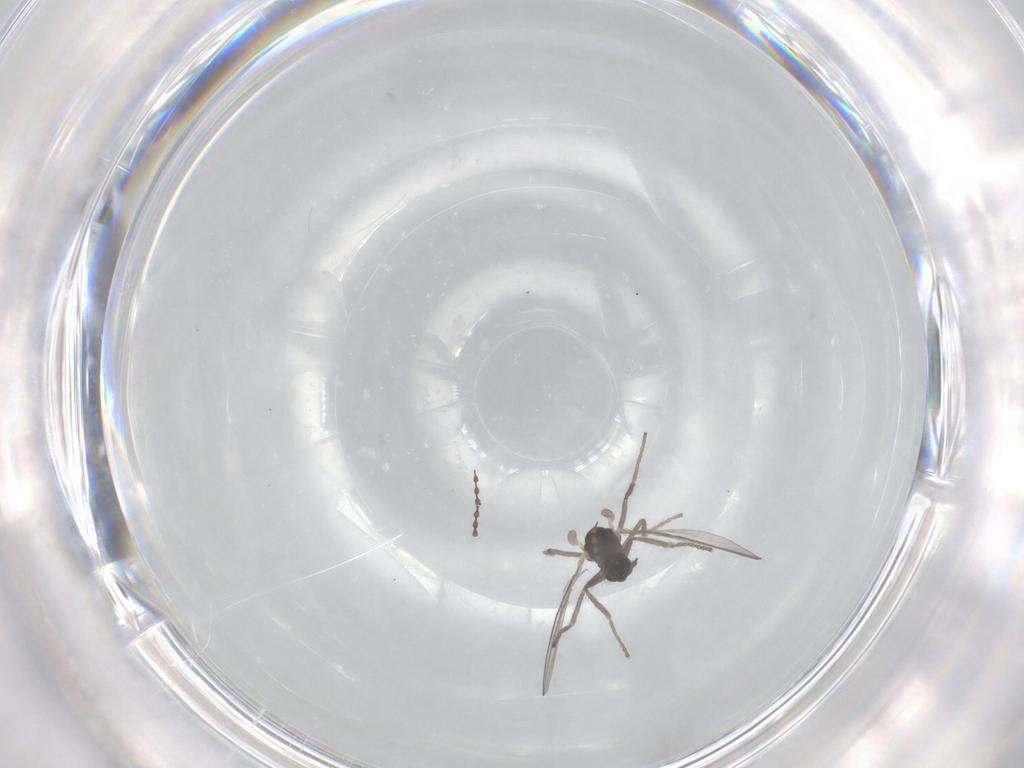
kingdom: Animalia
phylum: Arthropoda
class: Insecta
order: Diptera
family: Cecidomyiidae
